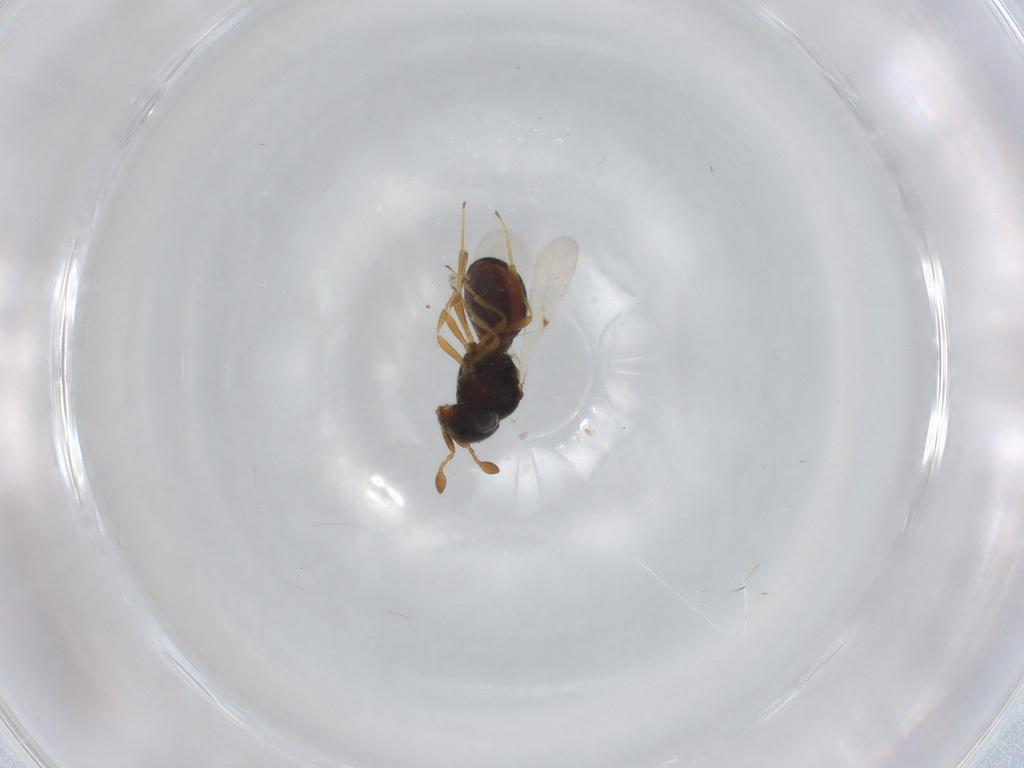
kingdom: Animalia
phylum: Arthropoda
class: Insecta
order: Hymenoptera
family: Scelionidae
